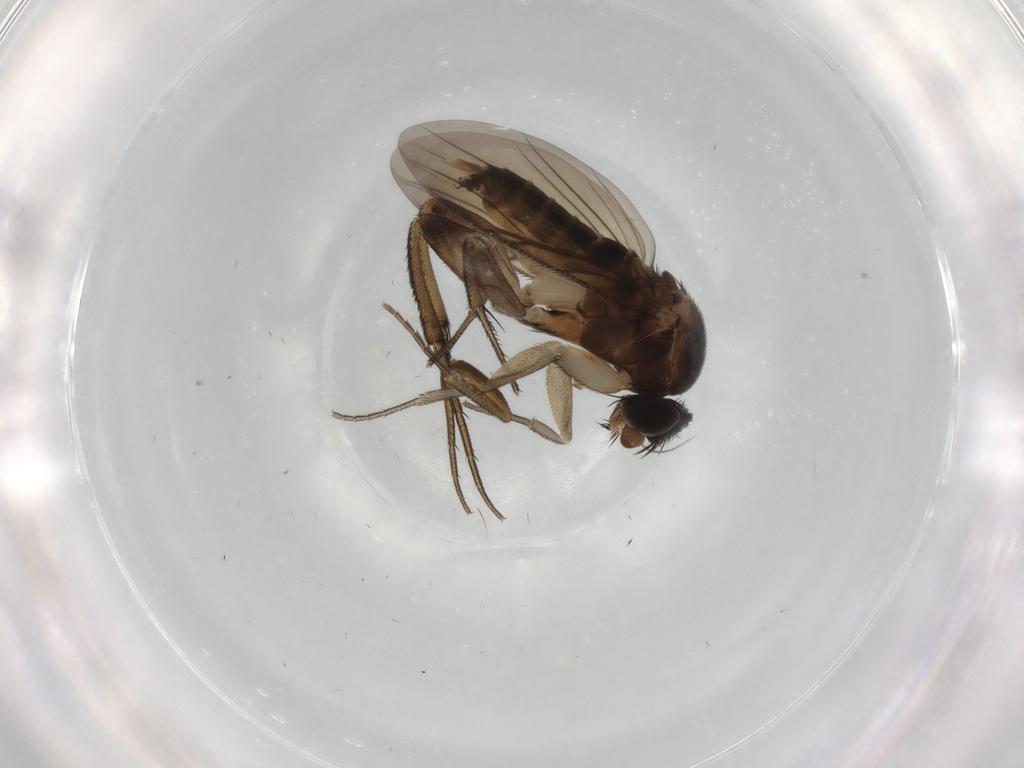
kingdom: Animalia
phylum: Arthropoda
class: Insecta
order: Diptera
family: Phoridae
